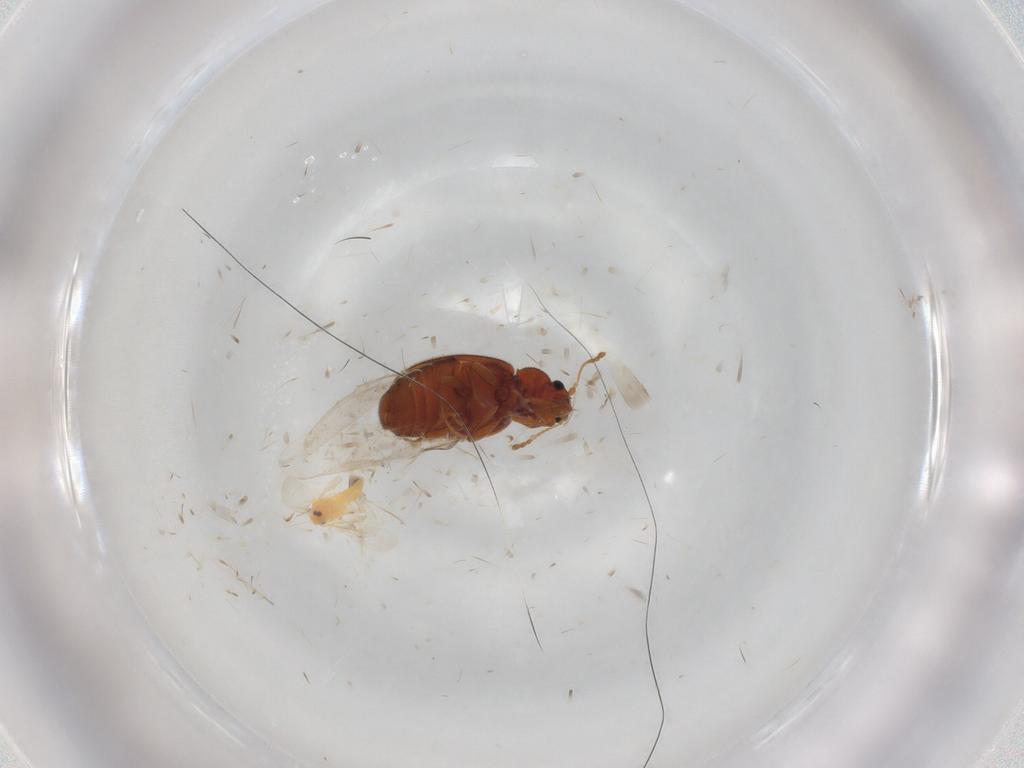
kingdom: Animalia
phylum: Arthropoda
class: Insecta
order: Coleoptera
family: Latridiidae
